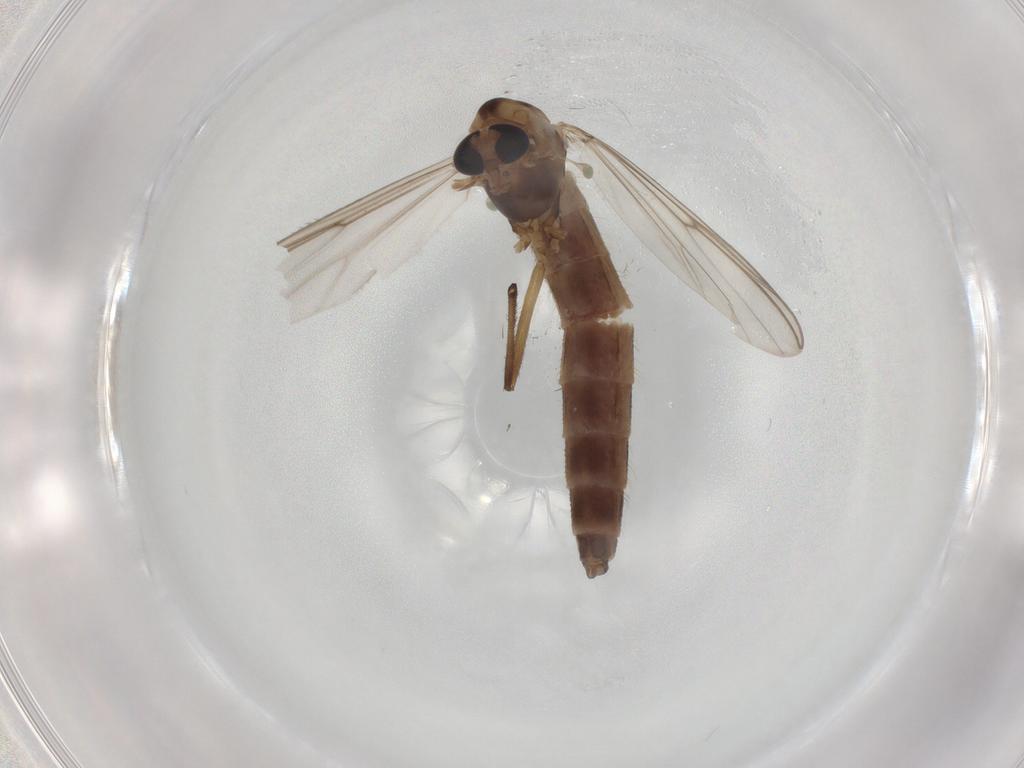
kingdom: Animalia
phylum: Arthropoda
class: Insecta
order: Diptera
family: Chironomidae
